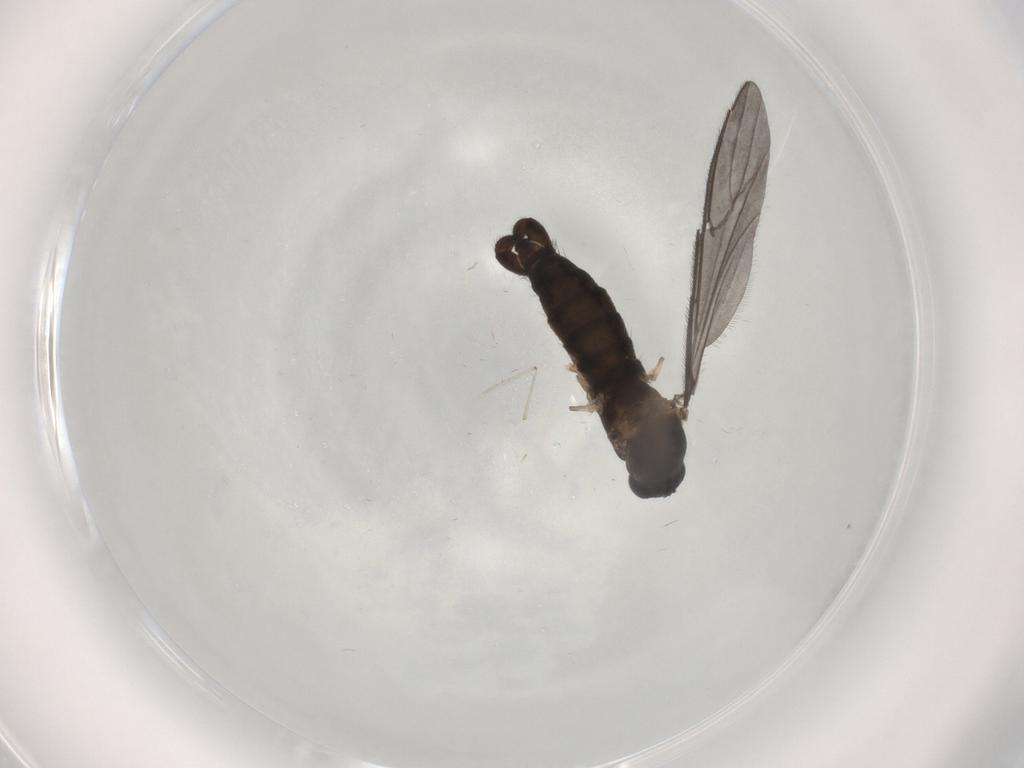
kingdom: Animalia
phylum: Arthropoda
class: Insecta
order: Diptera
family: Sciaridae
